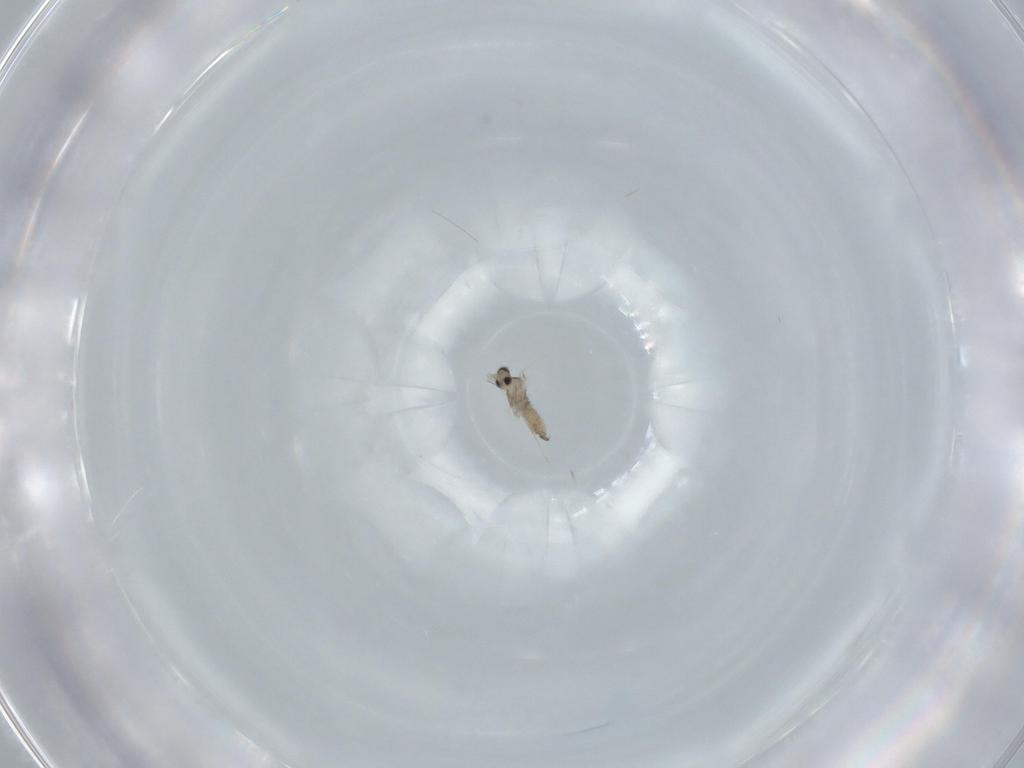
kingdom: Animalia
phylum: Arthropoda
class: Insecta
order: Diptera
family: Cecidomyiidae
